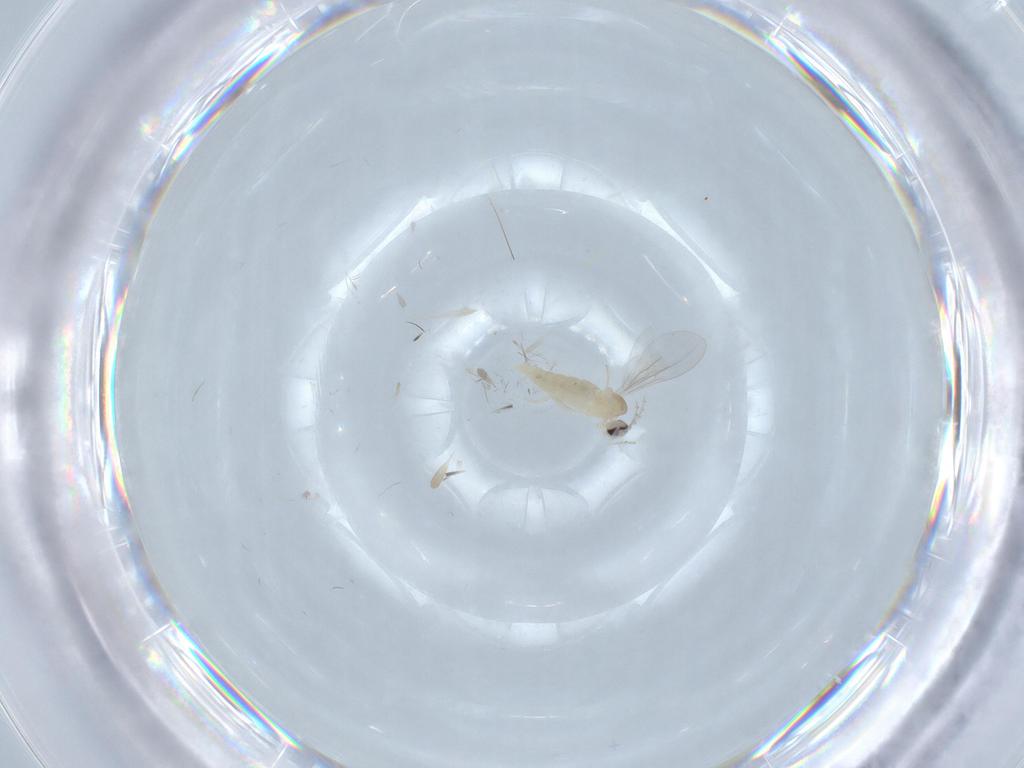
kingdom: Animalia
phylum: Arthropoda
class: Insecta
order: Diptera
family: Cecidomyiidae
